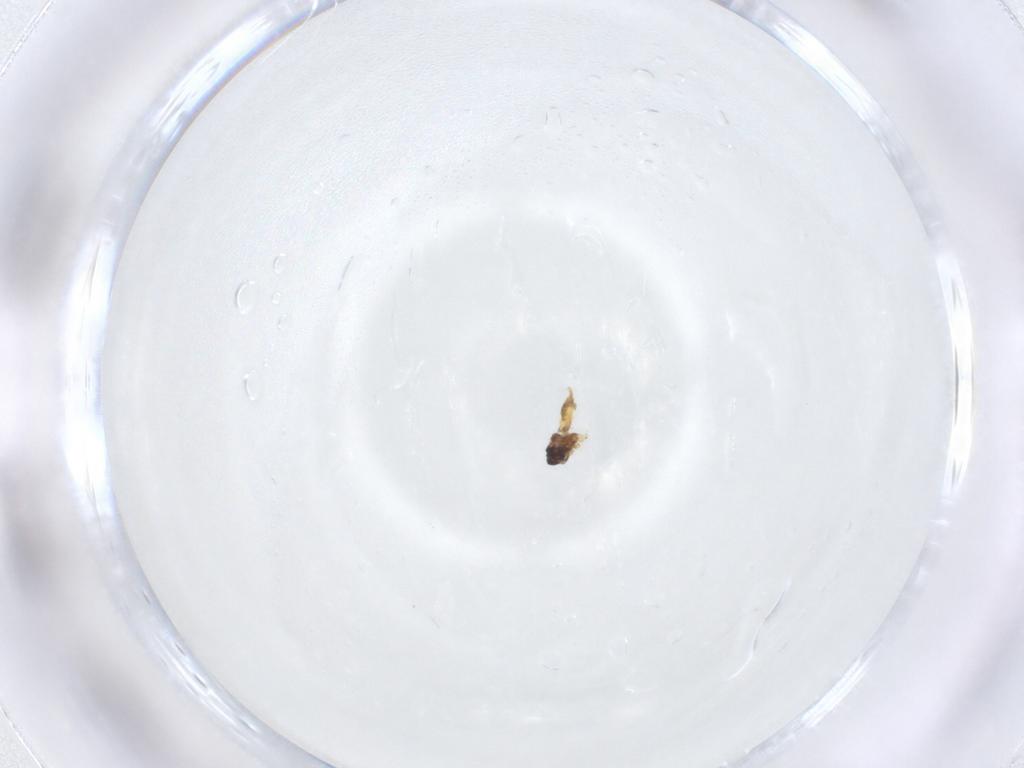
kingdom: Animalia
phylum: Arthropoda
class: Insecta
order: Hemiptera
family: Aleyrodidae
